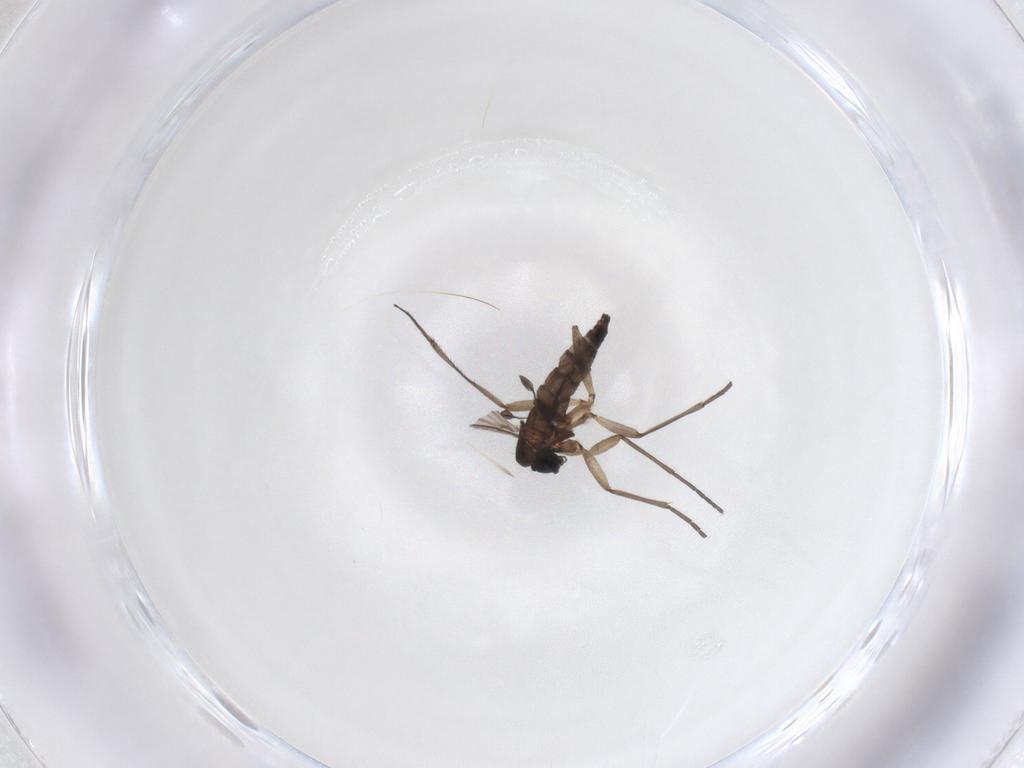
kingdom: Animalia
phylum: Arthropoda
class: Insecta
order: Diptera
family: Sciaridae
